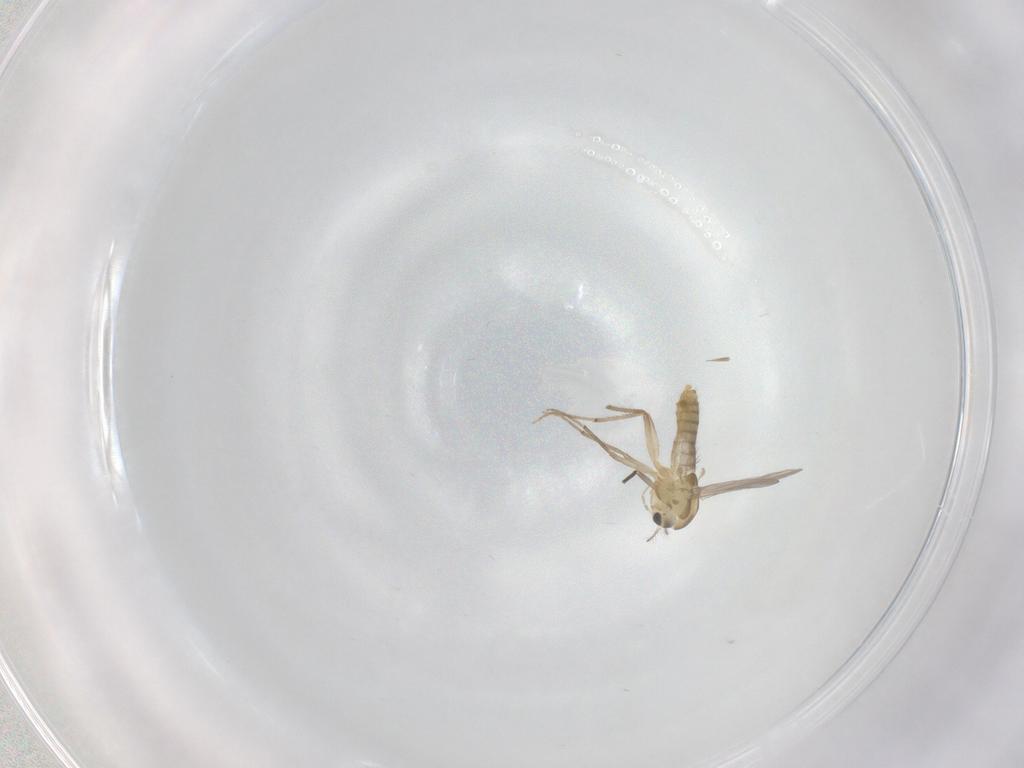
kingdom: Animalia
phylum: Arthropoda
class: Insecta
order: Diptera
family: Chironomidae
